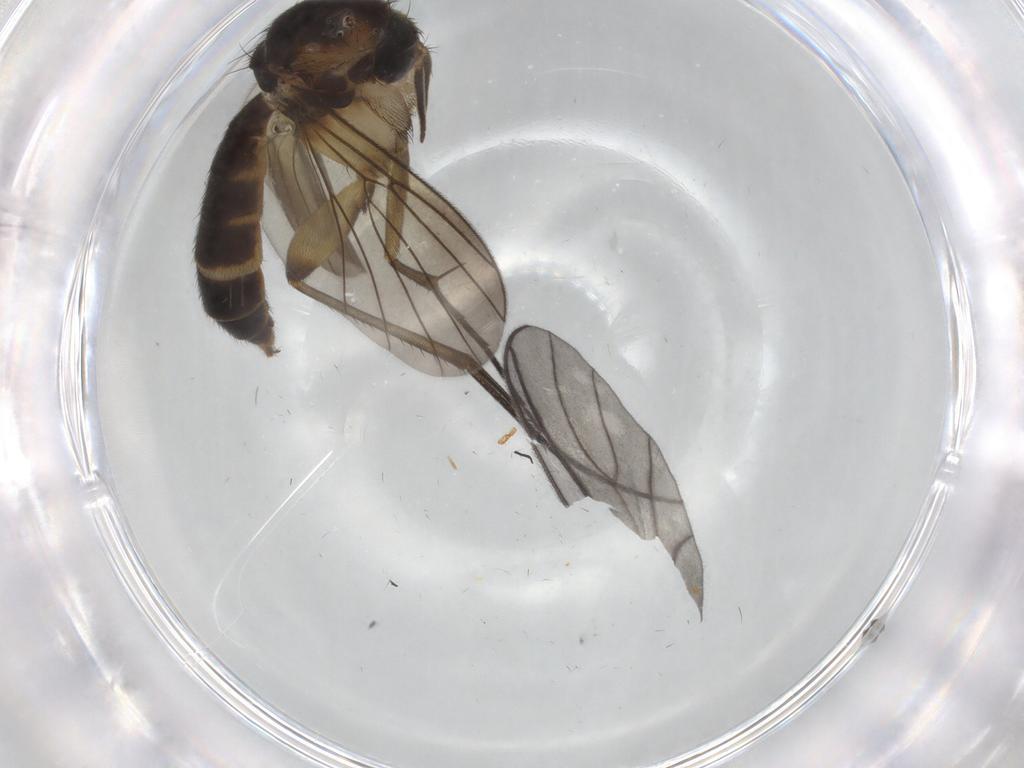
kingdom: Animalia
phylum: Arthropoda
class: Insecta
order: Diptera
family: Mycetophilidae
